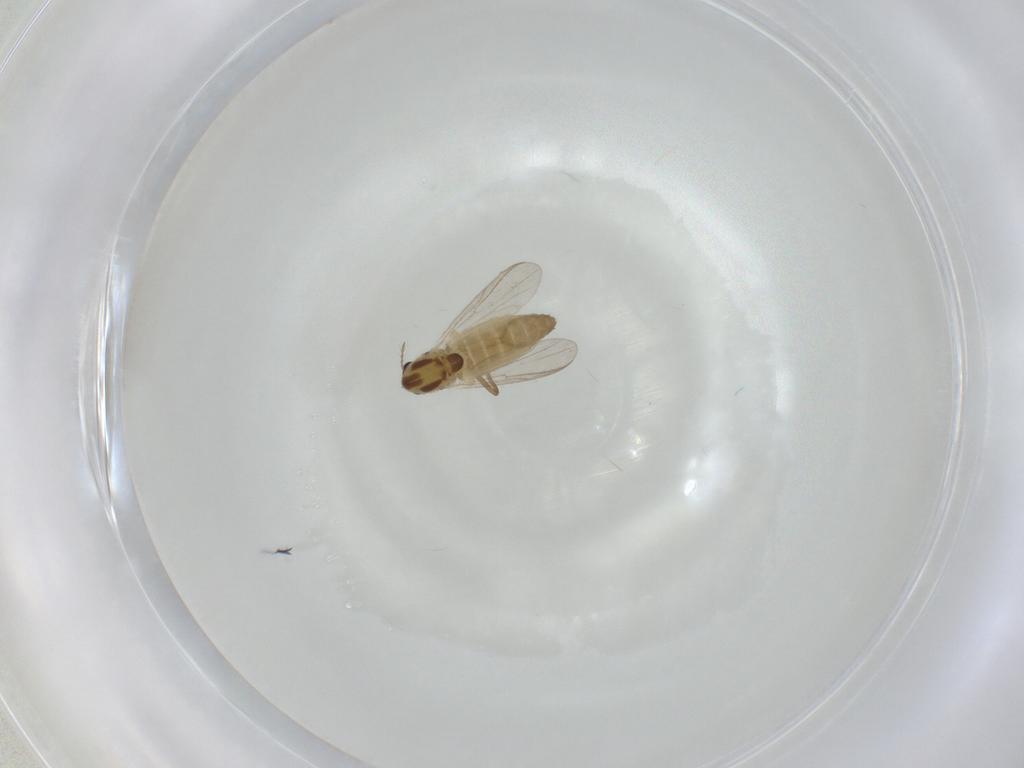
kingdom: Animalia
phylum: Arthropoda
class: Insecta
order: Diptera
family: Chironomidae
